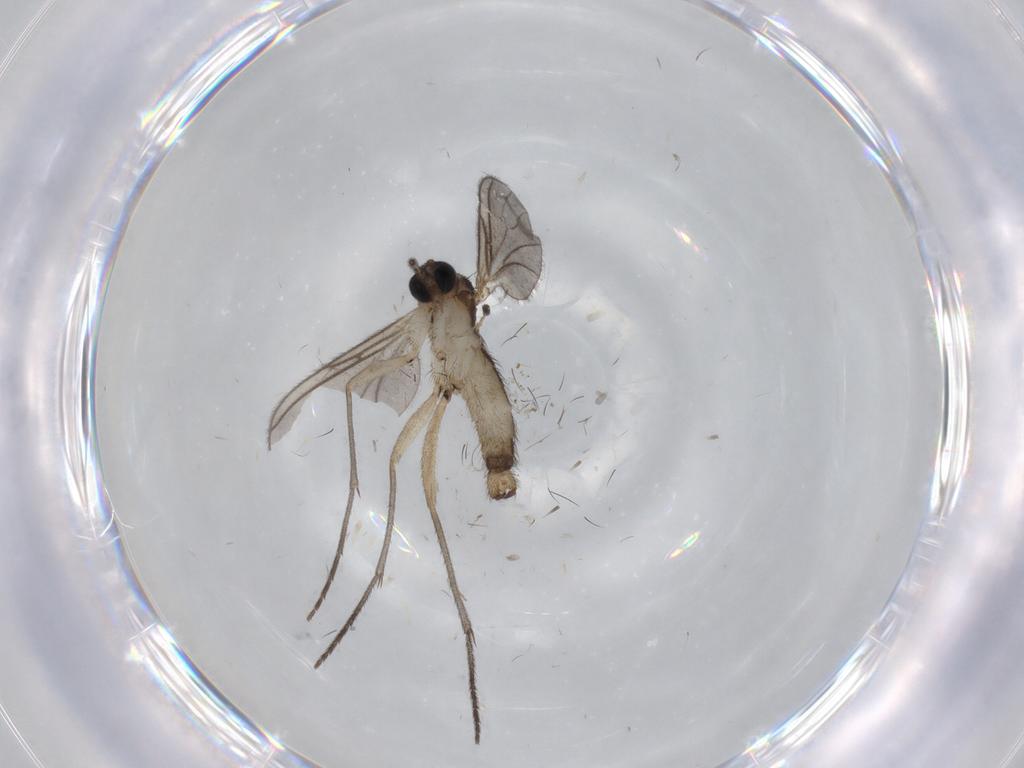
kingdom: Animalia
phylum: Arthropoda
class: Insecta
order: Diptera
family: Sciaridae
